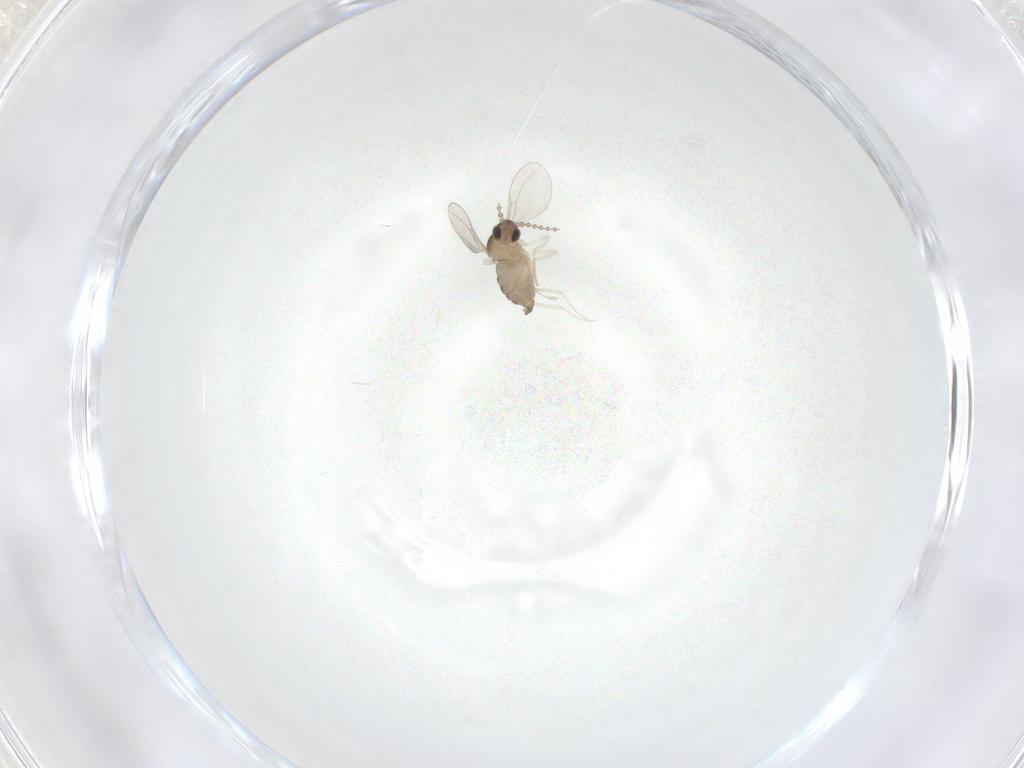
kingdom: Animalia
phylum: Arthropoda
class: Insecta
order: Diptera
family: Cecidomyiidae
